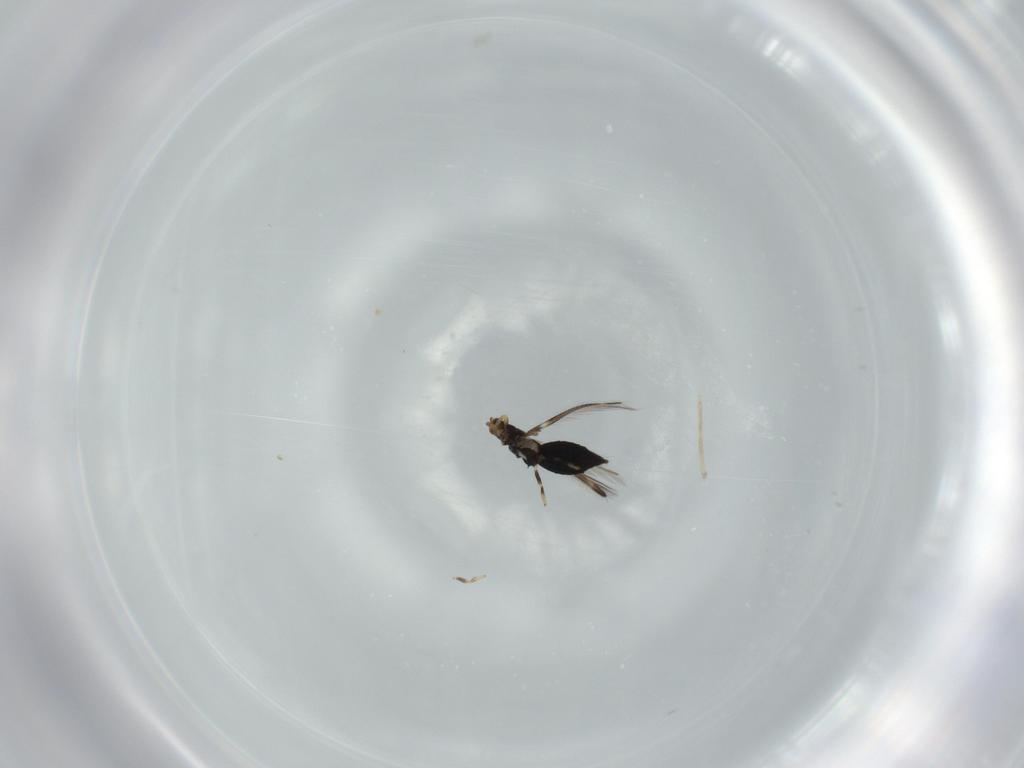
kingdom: Animalia
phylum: Arthropoda
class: Insecta
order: Thysanoptera
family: Thripidae
